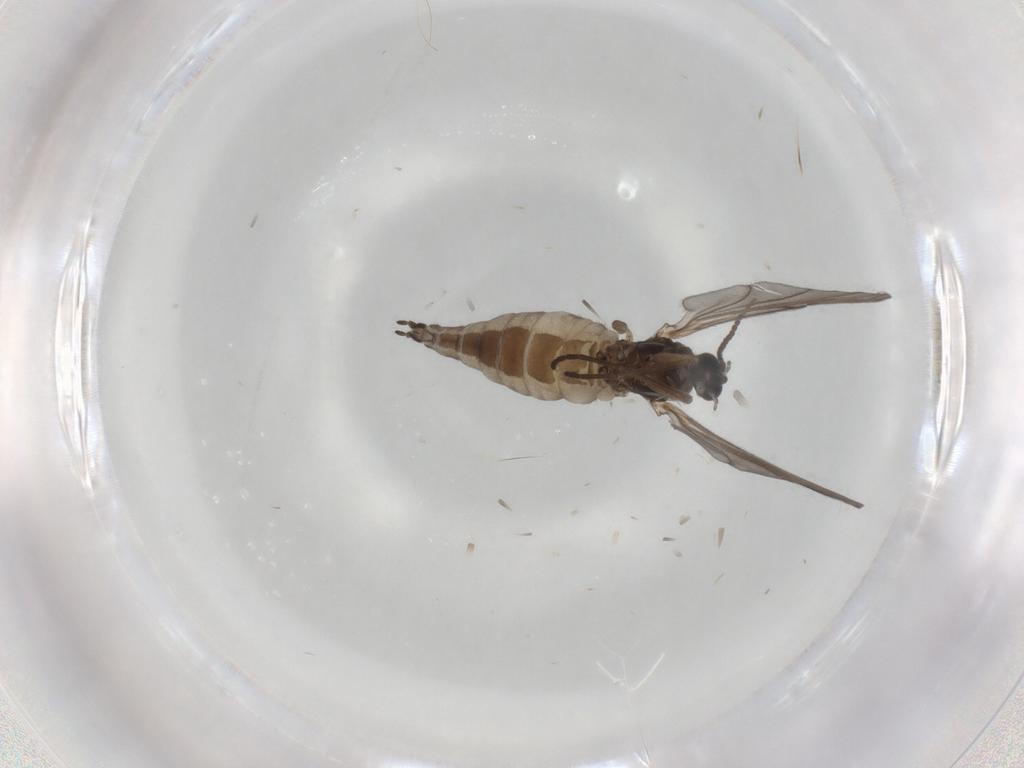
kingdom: Animalia
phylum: Arthropoda
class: Insecta
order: Diptera
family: Sciaridae
